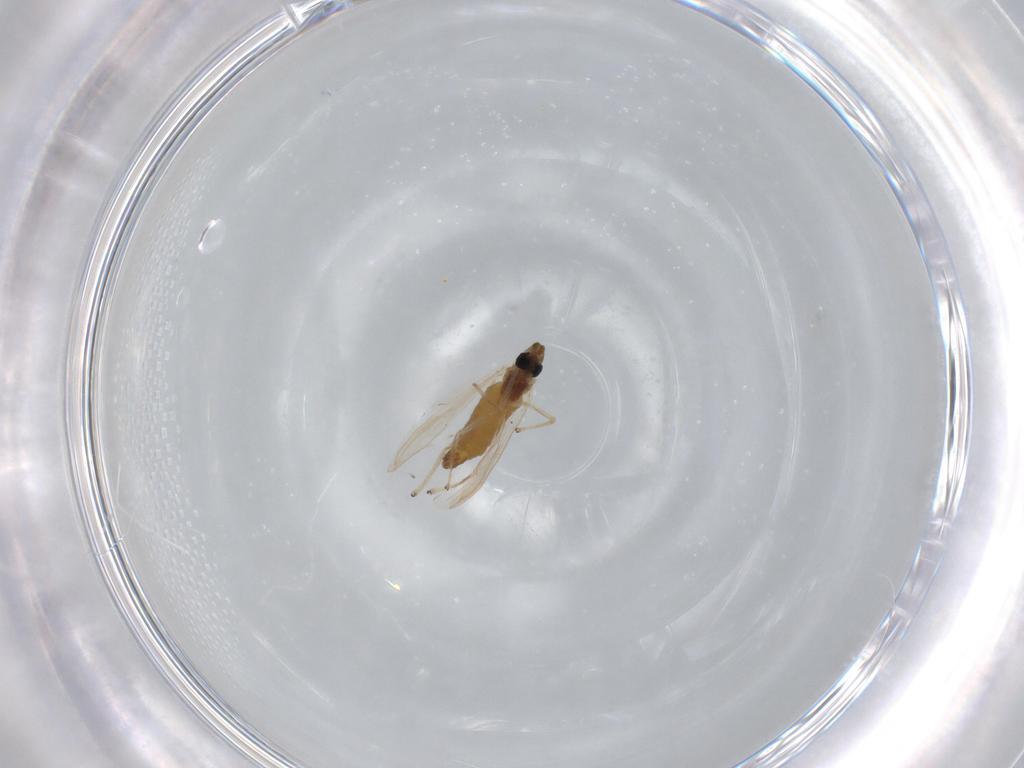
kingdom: Animalia
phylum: Arthropoda
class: Insecta
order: Diptera
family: Chironomidae
